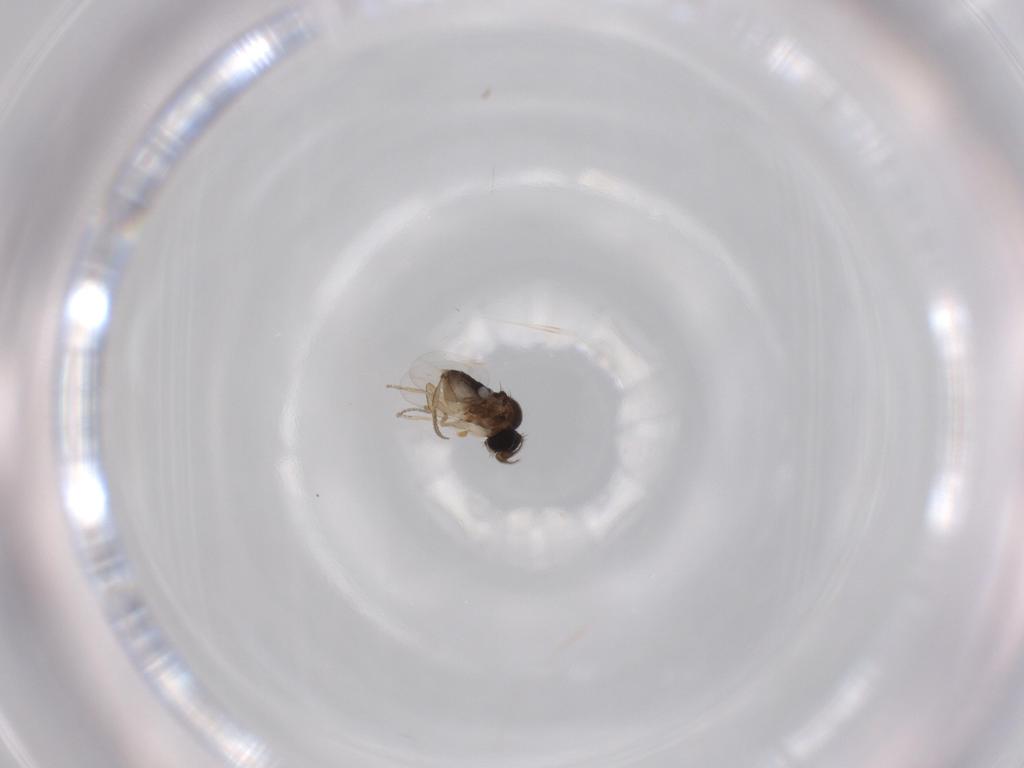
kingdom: Animalia
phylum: Arthropoda
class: Insecta
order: Diptera
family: Phoridae
